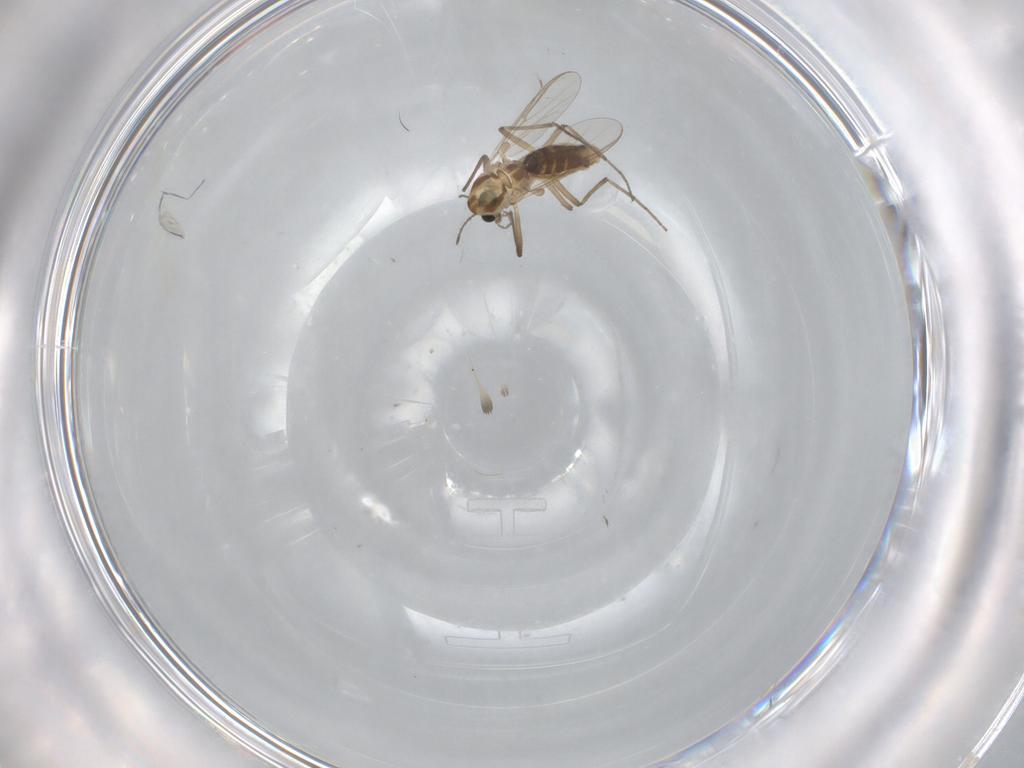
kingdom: Animalia
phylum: Arthropoda
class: Insecta
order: Diptera
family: Chironomidae
